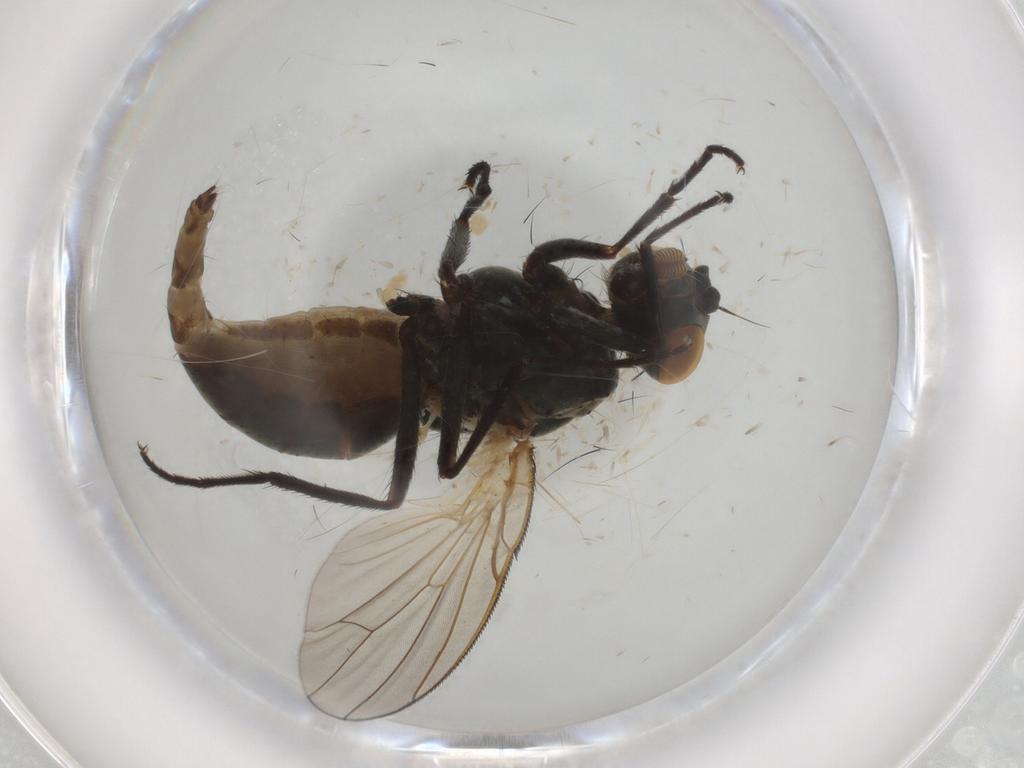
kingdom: Animalia
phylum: Arthropoda
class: Insecta
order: Diptera
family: Anthomyiidae
